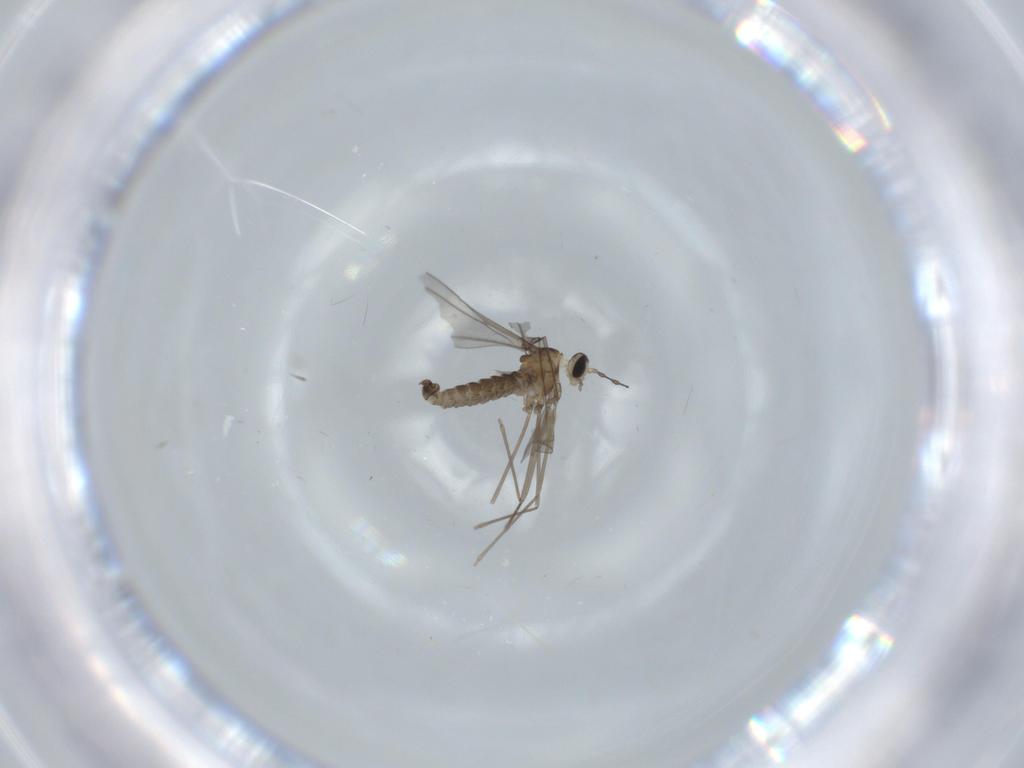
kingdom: Animalia
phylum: Arthropoda
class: Insecta
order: Diptera
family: Cecidomyiidae
